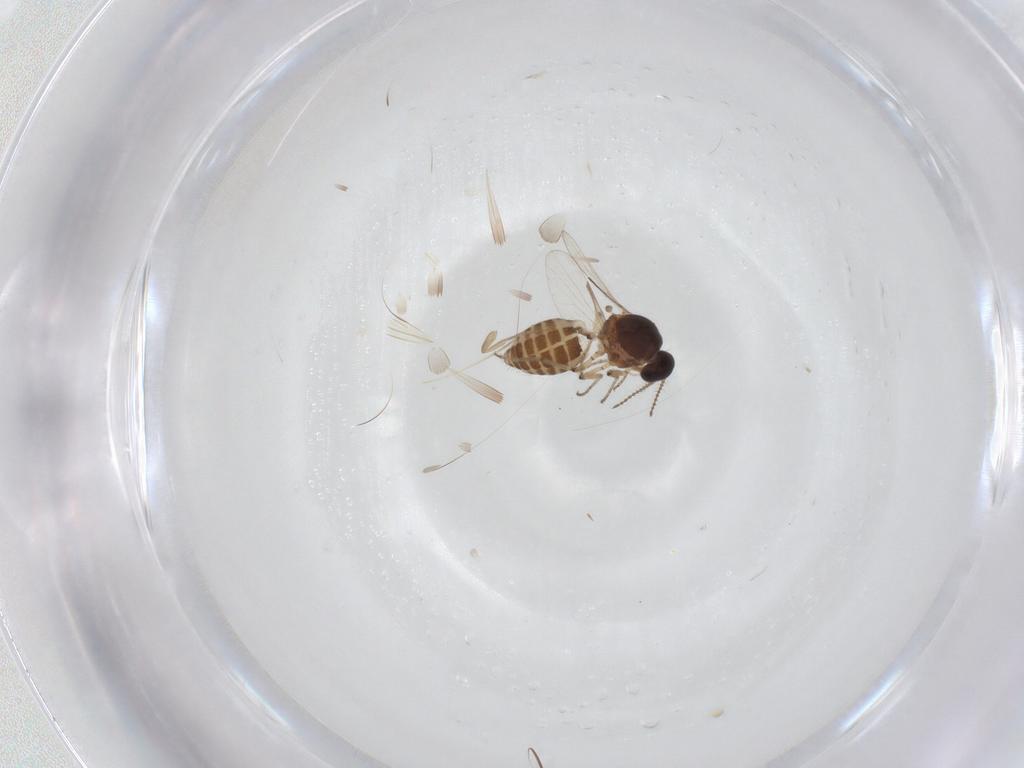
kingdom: Animalia
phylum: Arthropoda
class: Insecta
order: Diptera
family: Ceratopogonidae
